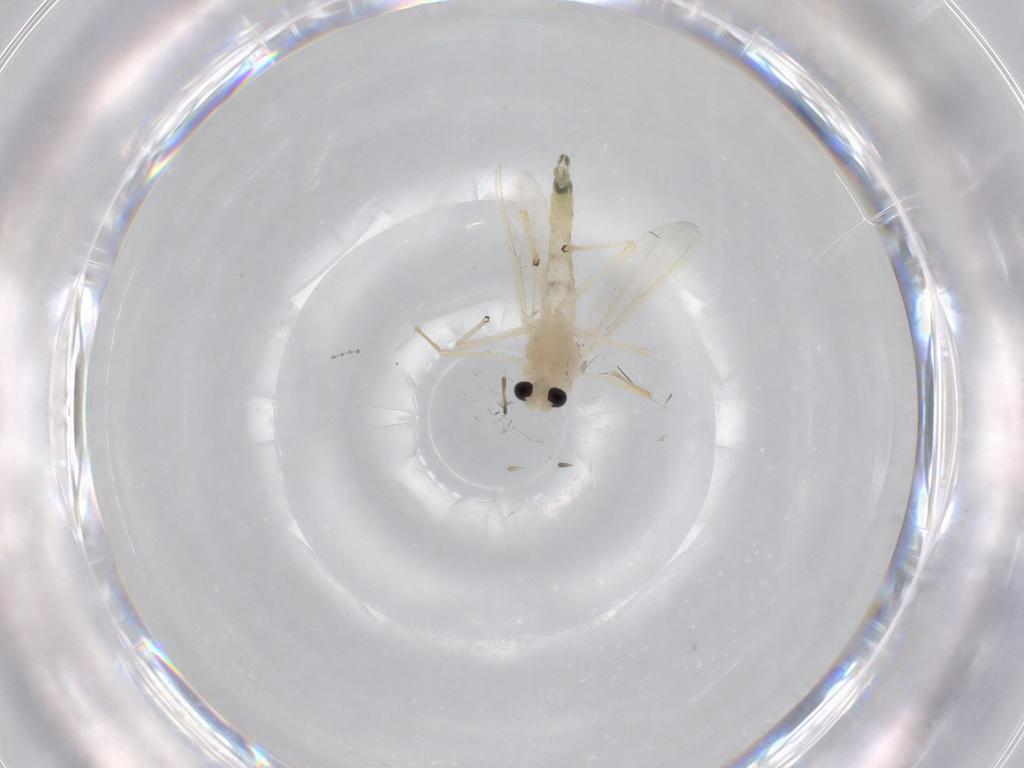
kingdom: Animalia
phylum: Arthropoda
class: Insecta
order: Diptera
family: Chironomidae
